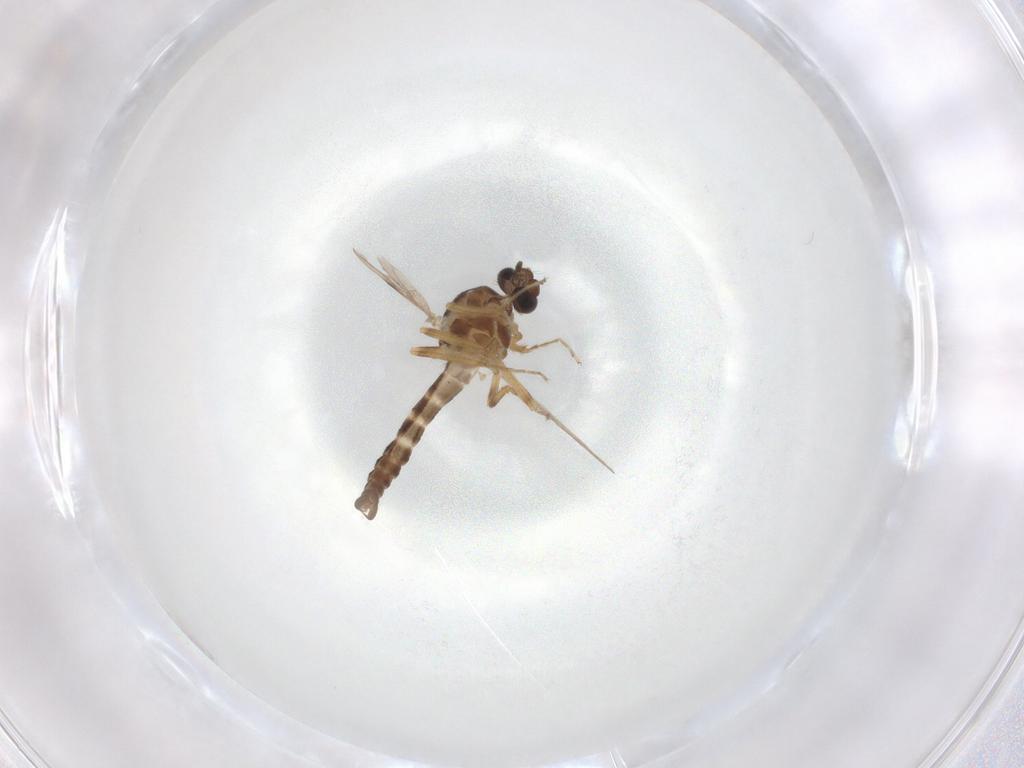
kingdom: Animalia
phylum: Arthropoda
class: Insecta
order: Diptera
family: Ceratopogonidae
